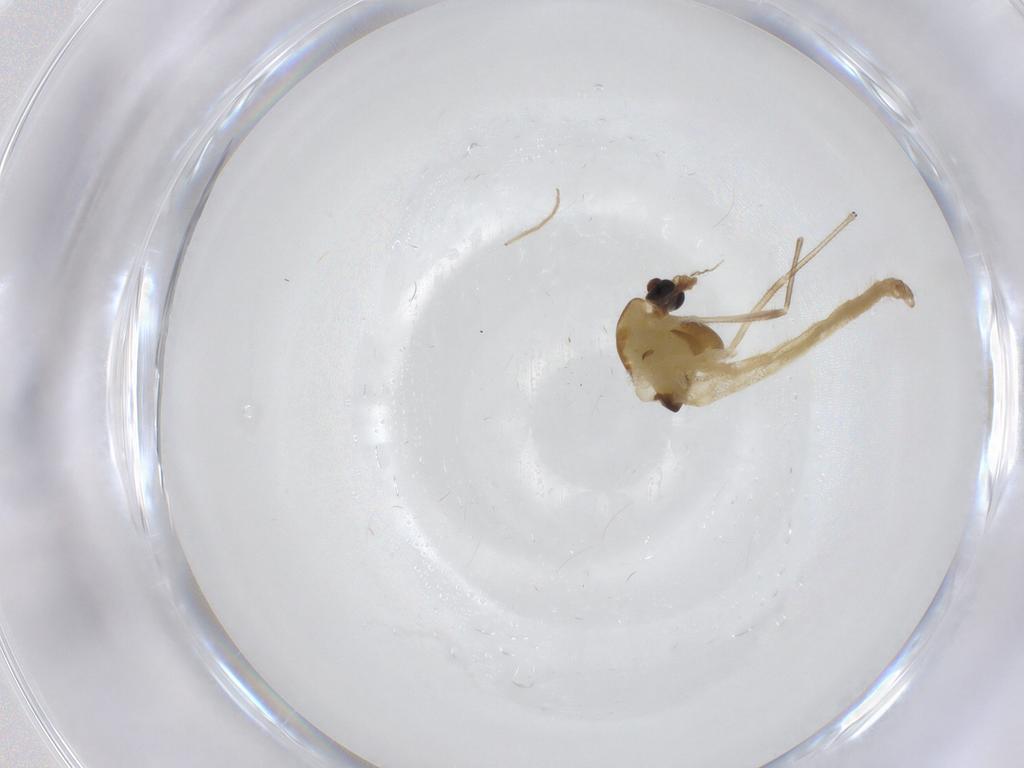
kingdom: Animalia
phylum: Arthropoda
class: Insecta
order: Diptera
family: Chironomidae
